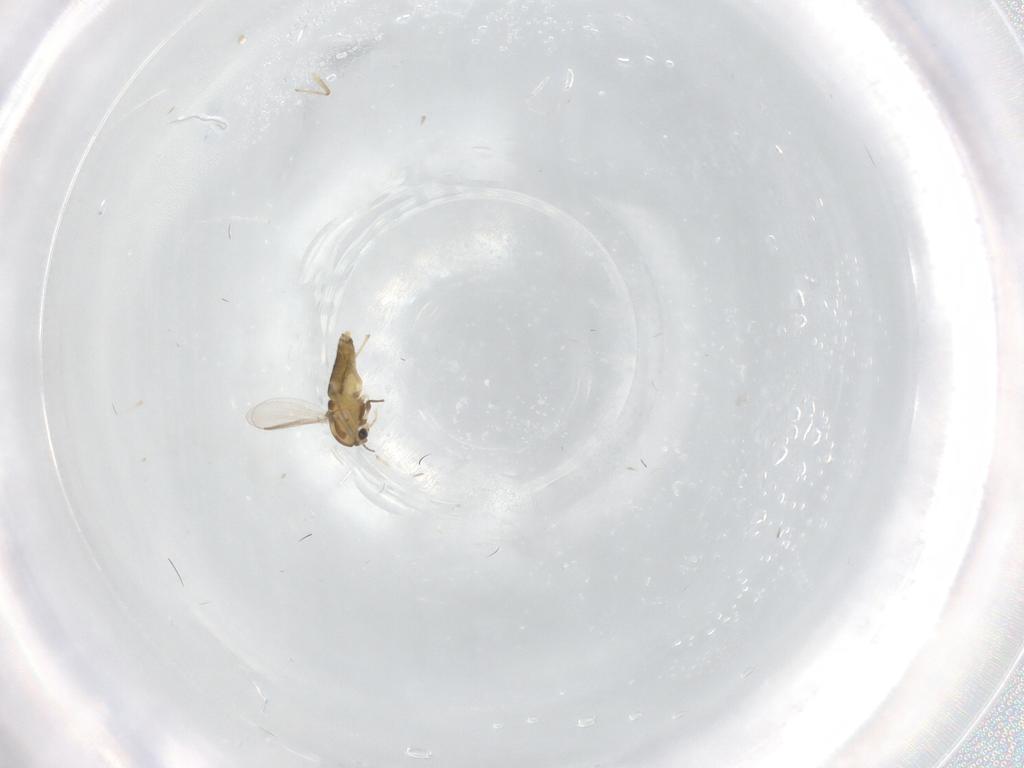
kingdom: Animalia
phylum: Arthropoda
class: Insecta
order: Diptera
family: Chironomidae
